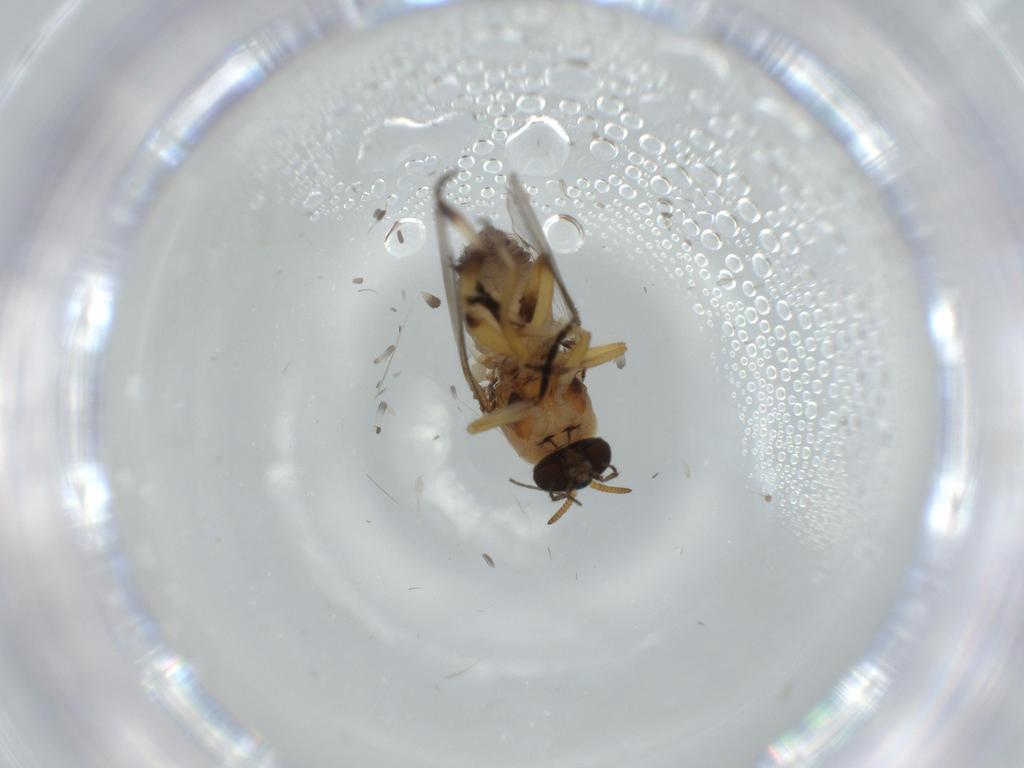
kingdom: Animalia
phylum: Arthropoda
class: Insecta
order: Diptera
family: Simuliidae
